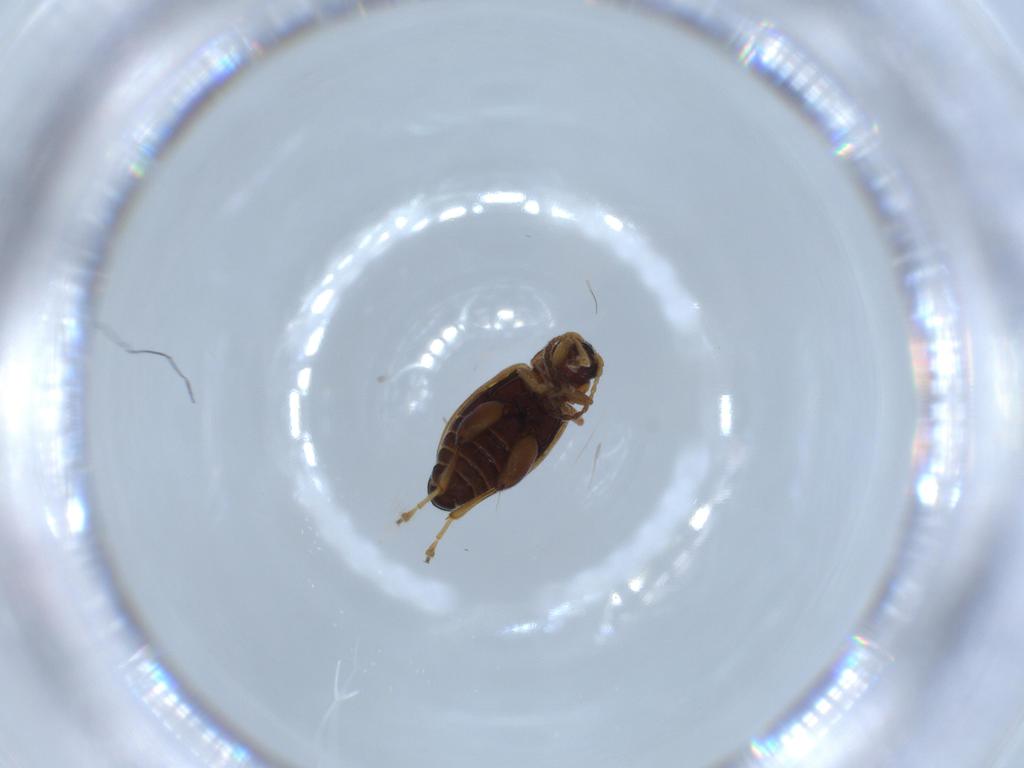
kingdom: Animalia
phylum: Arthropoda
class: Insecta
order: Coleoptera
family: Chrysomelidae
